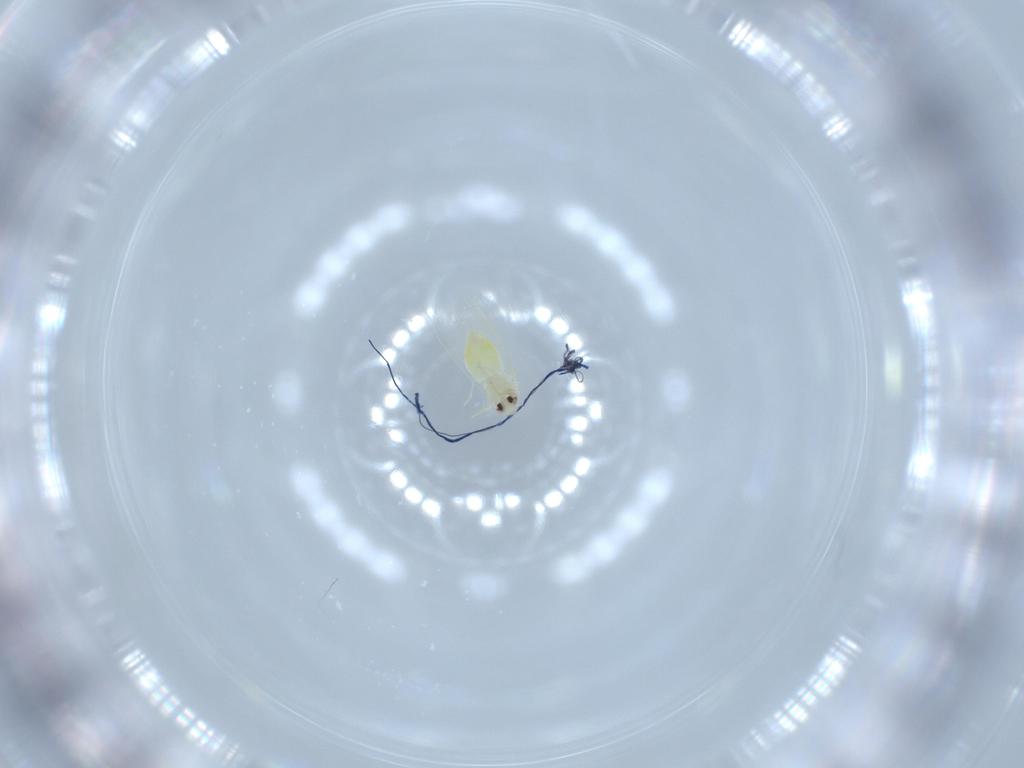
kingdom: Animalia
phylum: Arthropoda
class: Insecta
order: Hemiptera
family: Aleyrodidae
